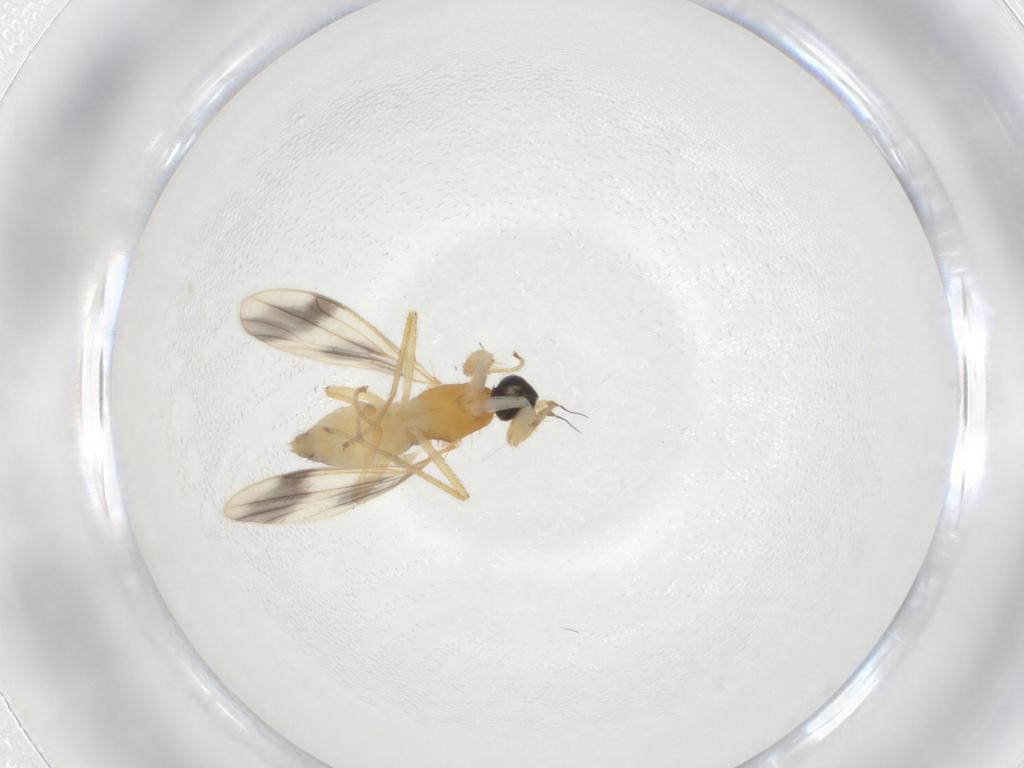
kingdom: Animalia
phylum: Arthropoda
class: Insecta
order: Diptera
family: Empididae
